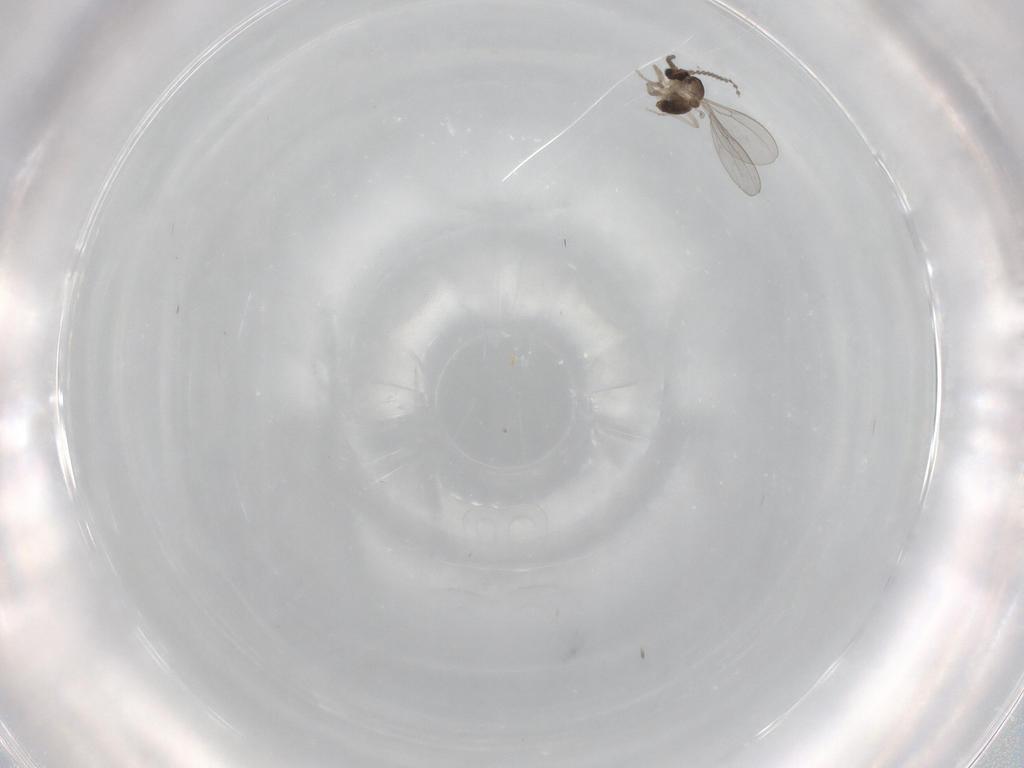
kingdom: Animalia
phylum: Arthropoda
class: Insecta
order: Diptera
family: Cecidomyiidae
